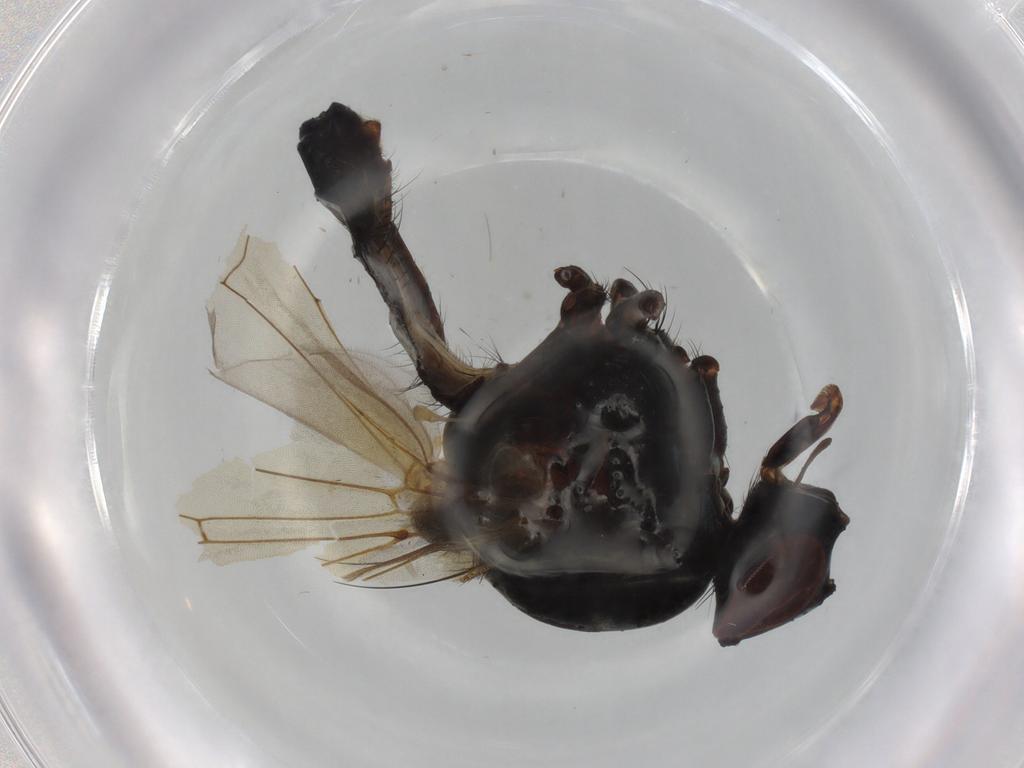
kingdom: Animalia
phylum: Arthropoda
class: Insecta
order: Diptera
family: Anthomyiidae
